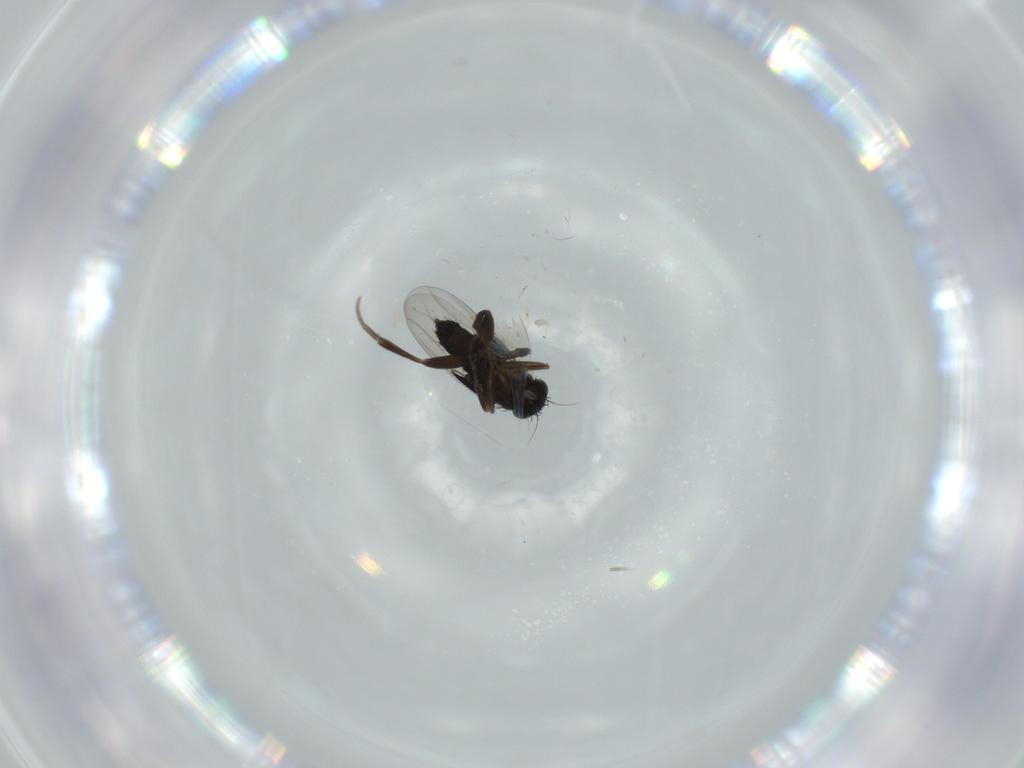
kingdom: Animalia
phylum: Arthropoda
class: Insecta
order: Diptera
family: Phoridae
